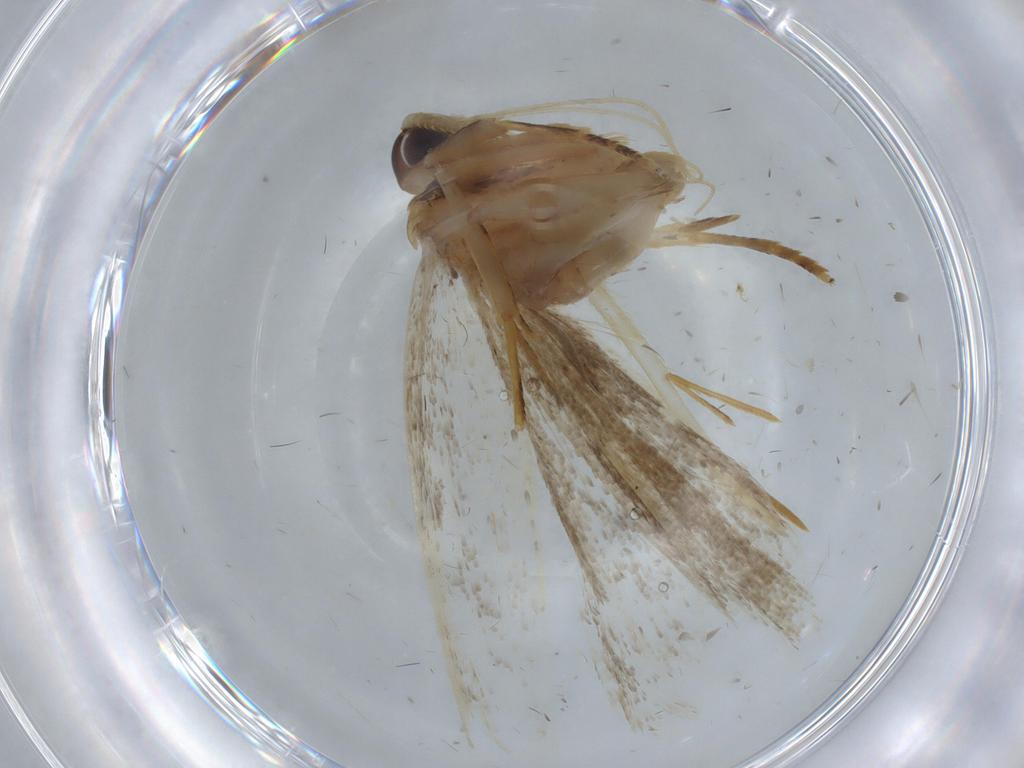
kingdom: Animalia
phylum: Arthropoda
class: Insecta
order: Lepidoptera
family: Lecithoceridae
